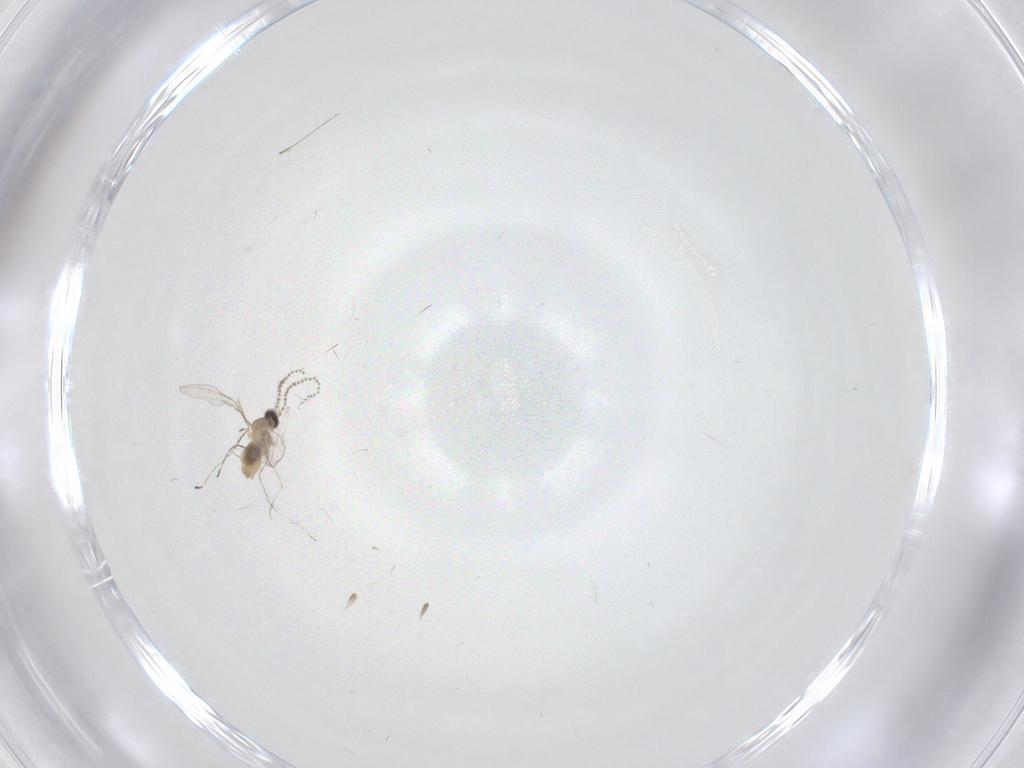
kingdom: Animalia
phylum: Arthropoda
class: Insecta
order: Diptera
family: Cecidomyiidae
